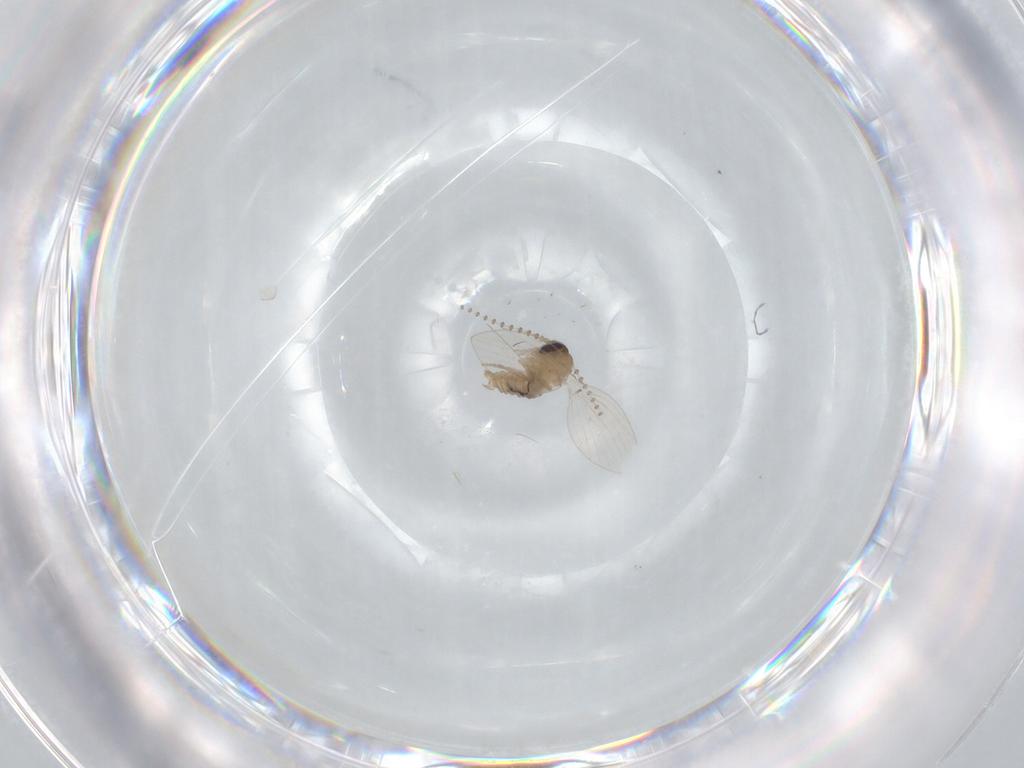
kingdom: Animalia
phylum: Arthropoda
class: Insecta
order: Diptera
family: Psychodidae
